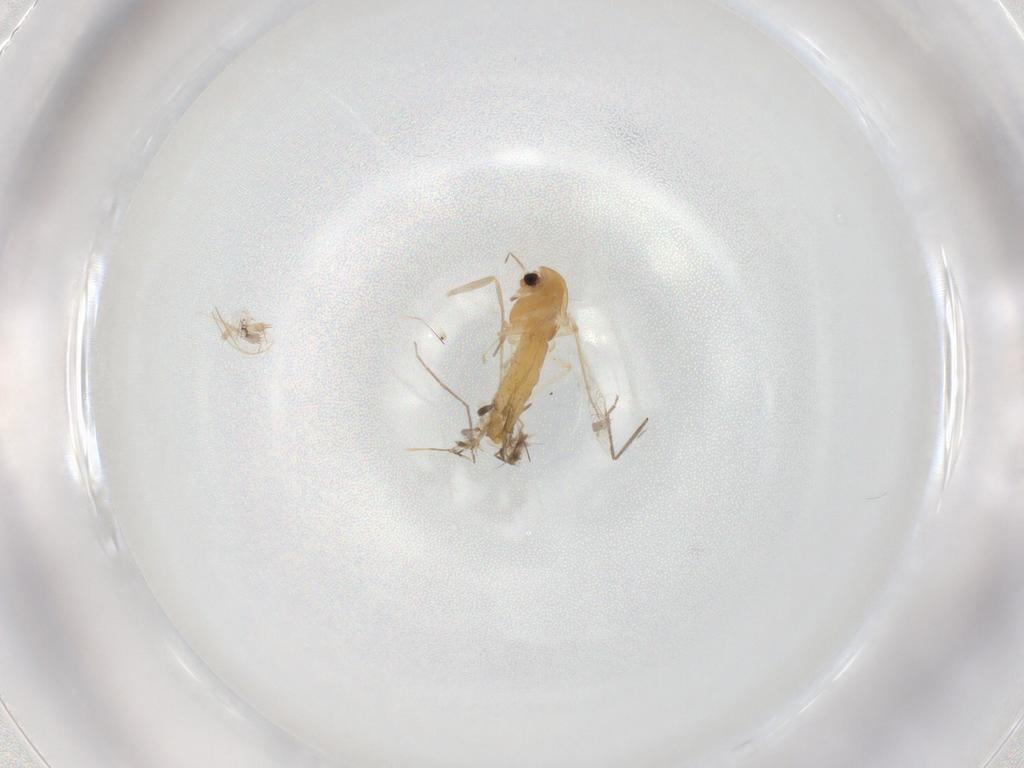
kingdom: Animalia
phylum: Arthropoda
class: Insecta
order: Diptera
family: Chironomidae
